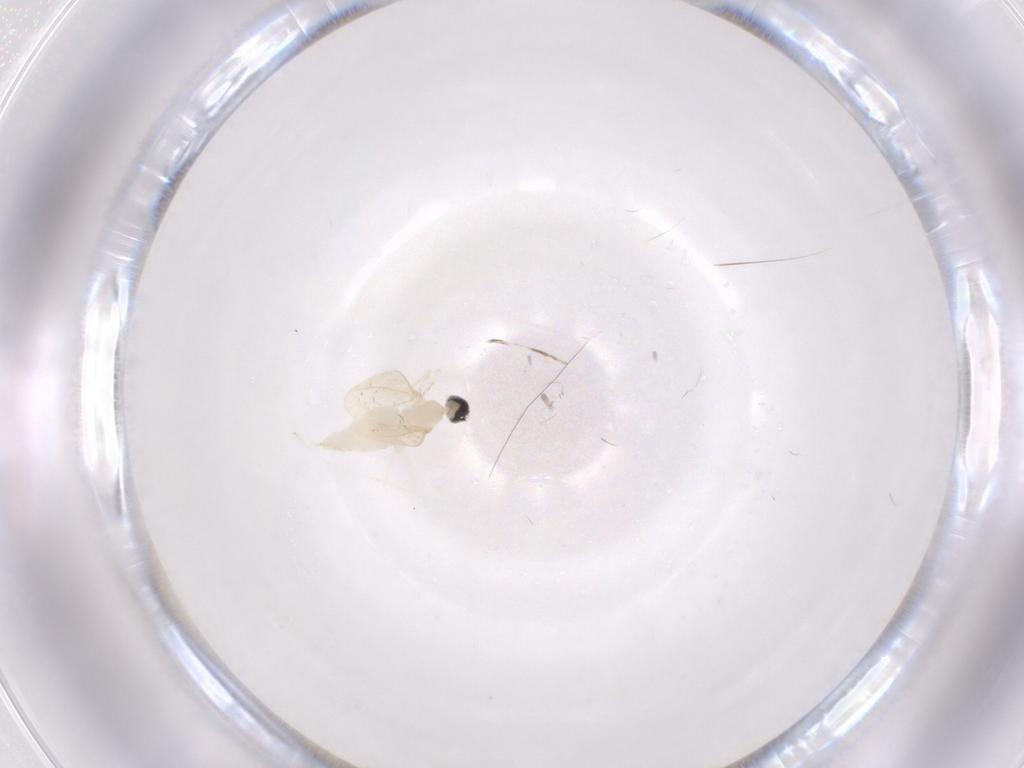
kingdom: Animalia
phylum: Arthropoda
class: Insecta
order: Diptera
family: Cecidomyiidae
